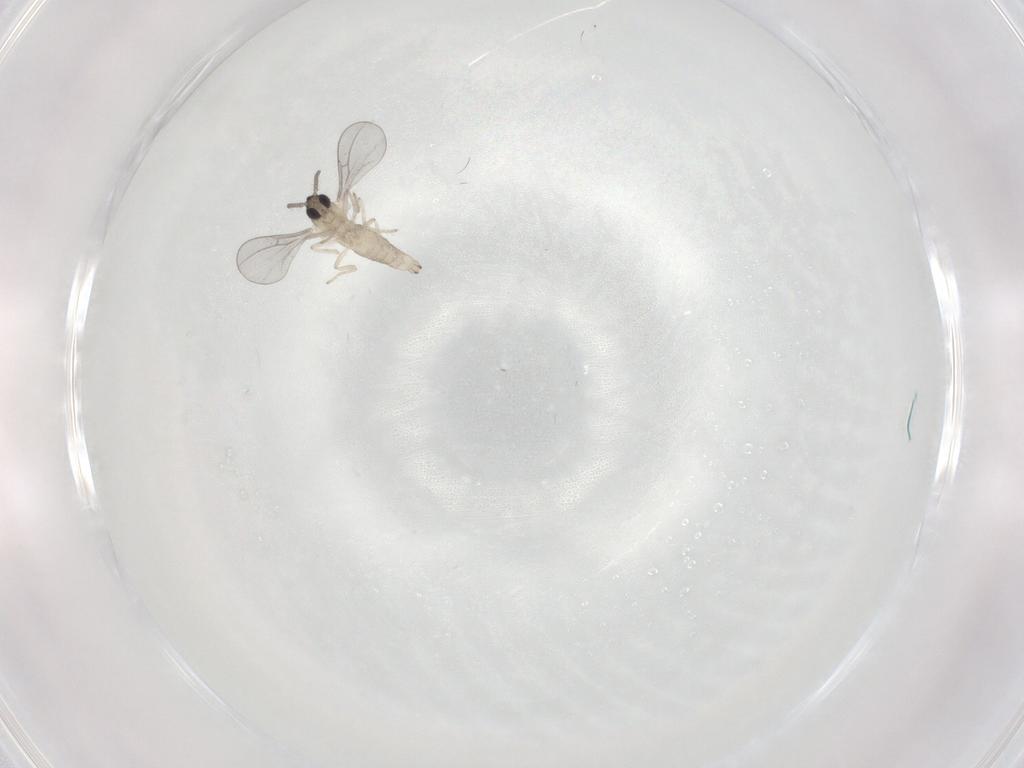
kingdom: Animalia
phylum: Arthropoda
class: Insecta
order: Diptera
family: Cecidomyiidae
